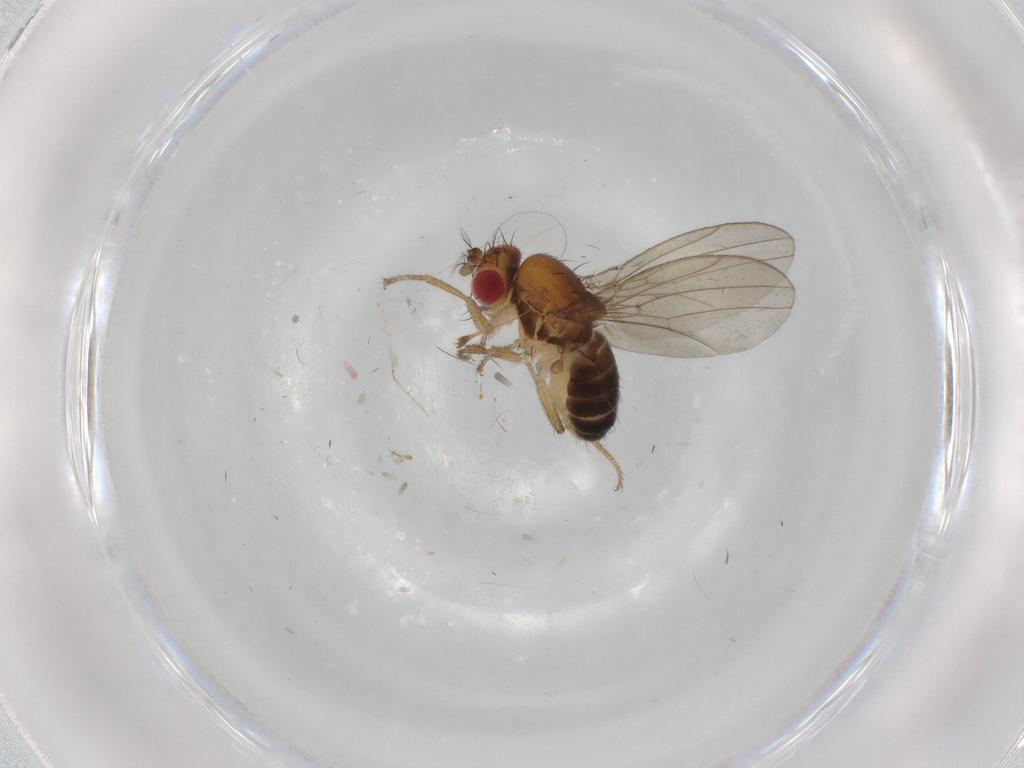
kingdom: Animalia
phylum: Arthropoda
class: Insecta
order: Diptera
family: Drosophilidae
